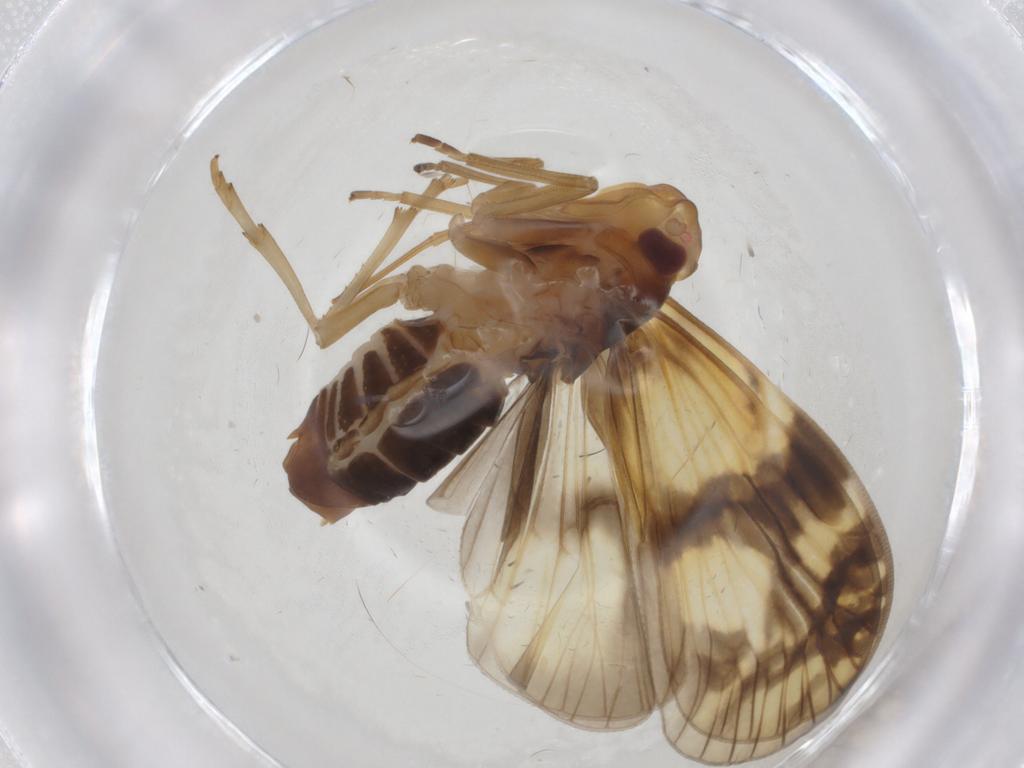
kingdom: Animalia
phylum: Arthropoda
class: Insecta
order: Hemiptera
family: Cixiidae
